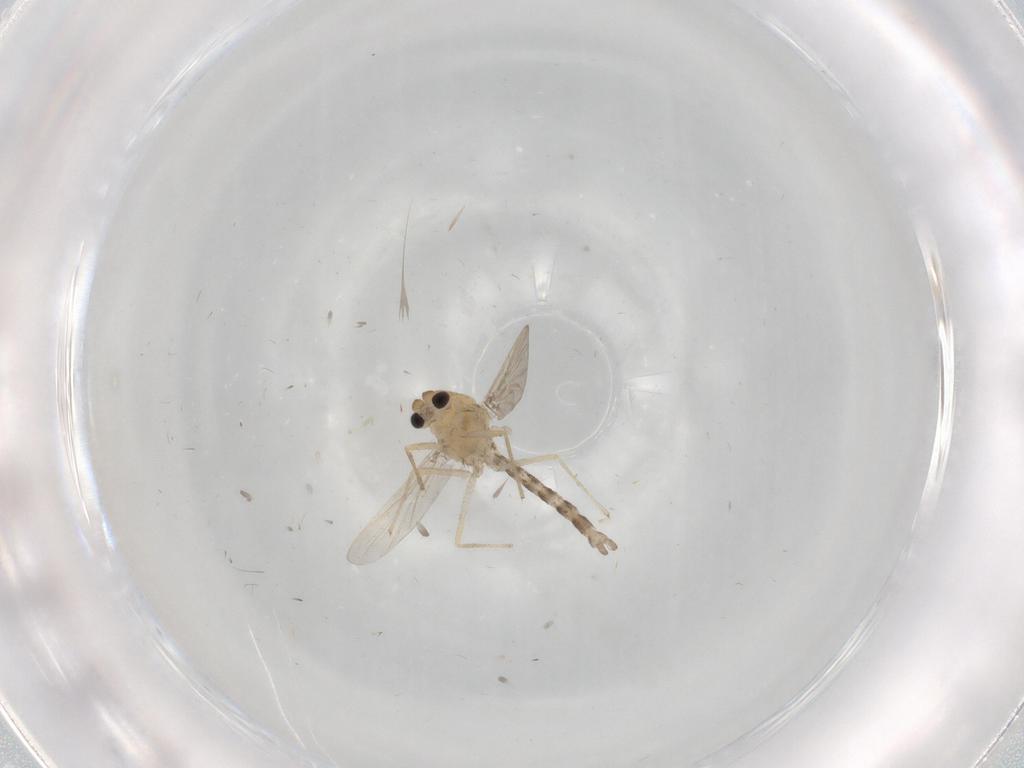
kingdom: Animalia
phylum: Arthropoda
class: Insecta
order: Diptera
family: Chironomidae
